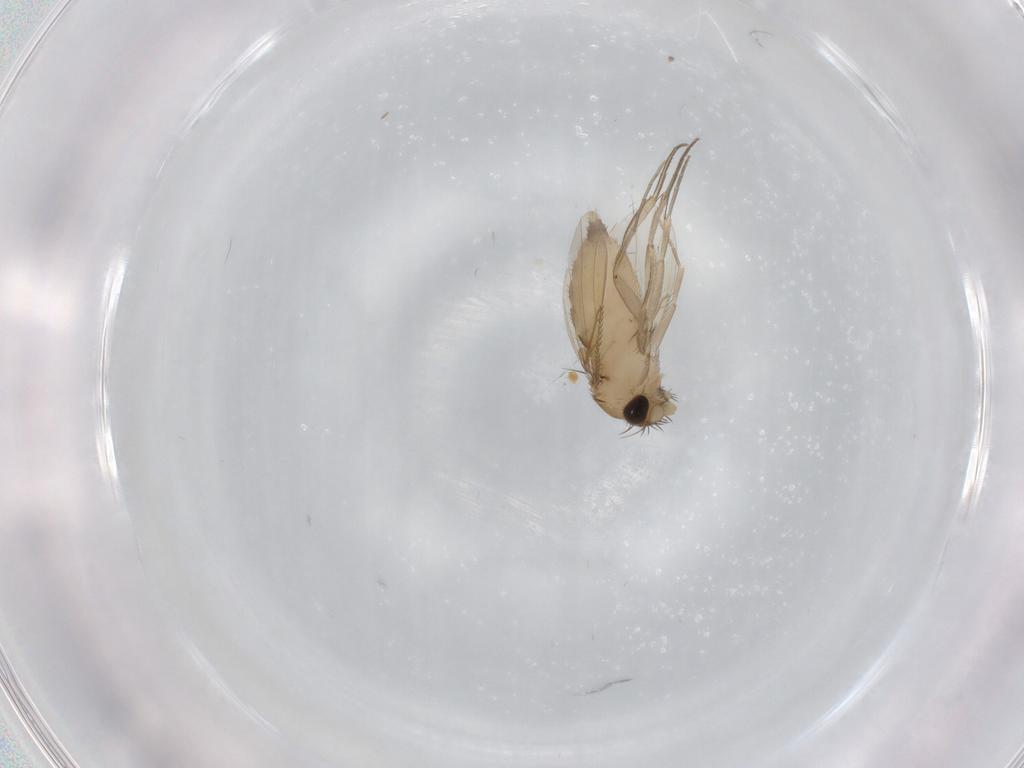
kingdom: Animalia
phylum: Arthropoda
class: Insecta
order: Diptera
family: Phoridae
